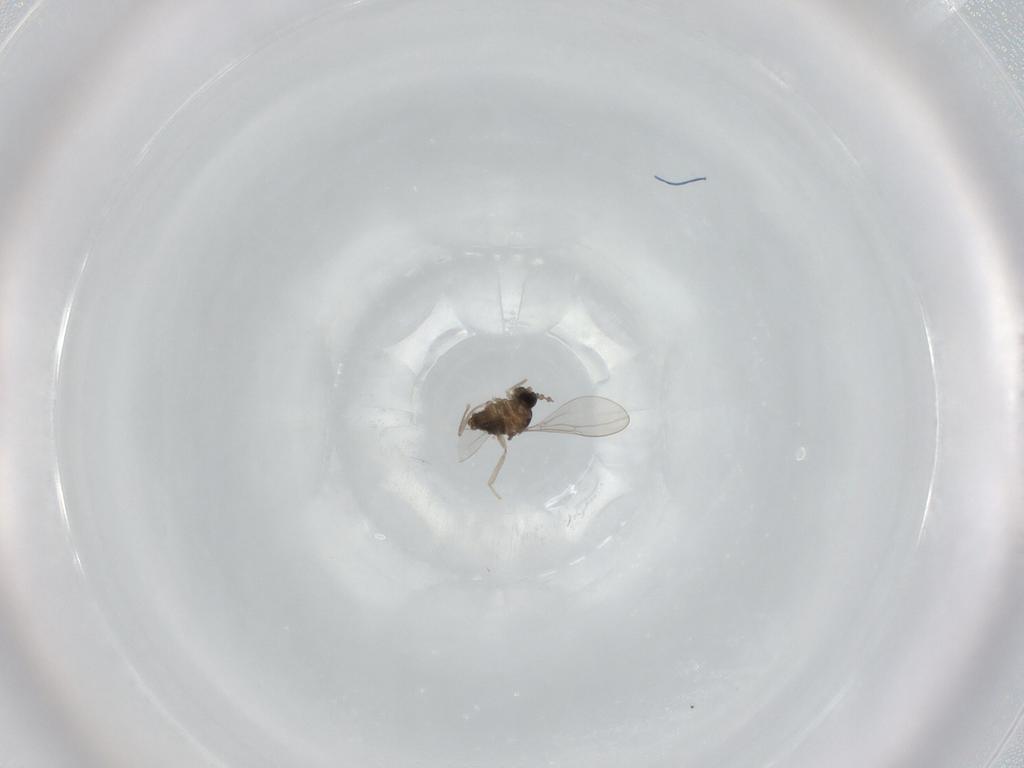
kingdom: Animalia
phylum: Arthropoda
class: Insecta
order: Diptera
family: Cecidomyiidae
